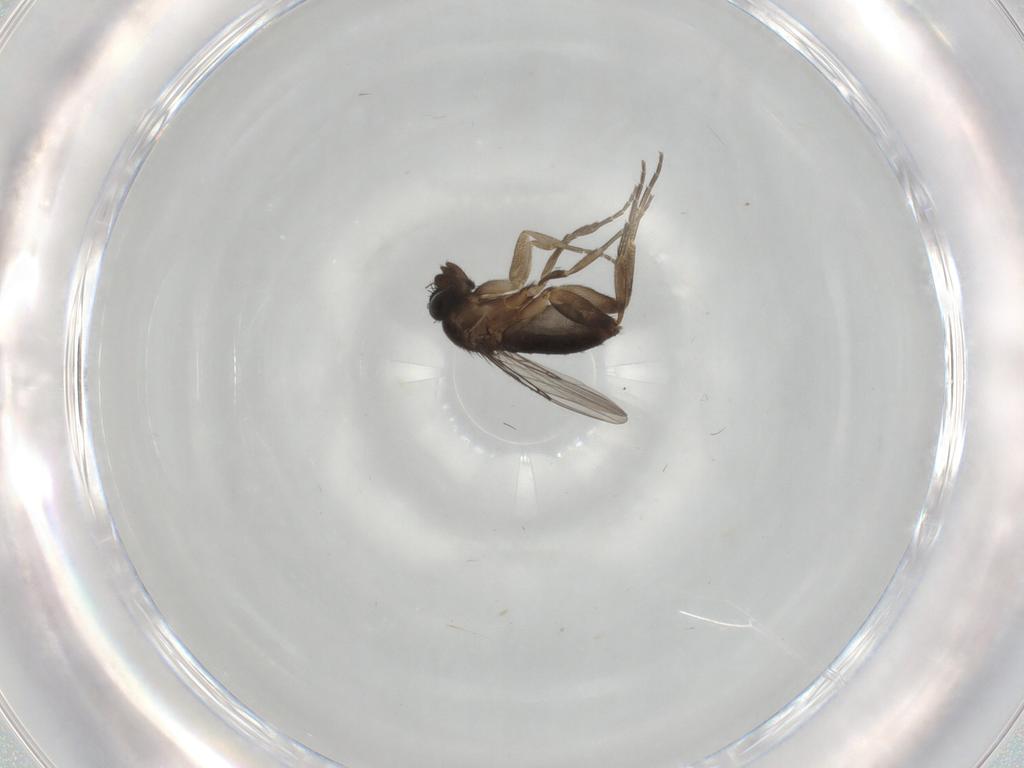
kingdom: Animalia
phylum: Arthropoda
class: Insecta
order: Diptera
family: Phoridae
